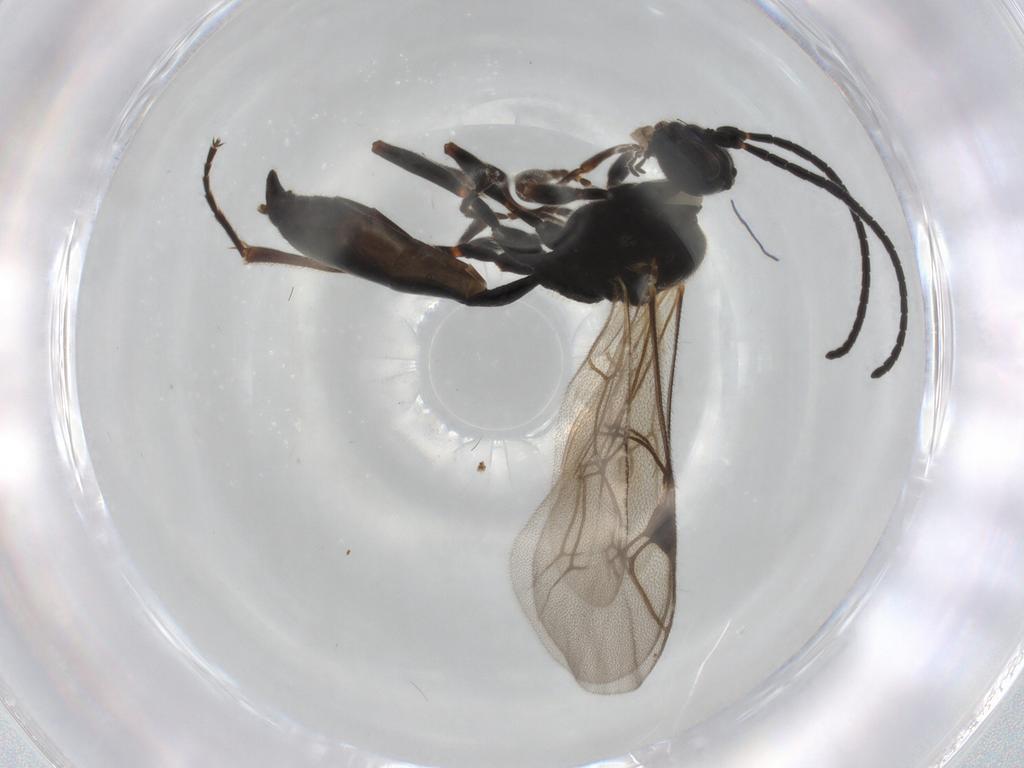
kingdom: Animalia
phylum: Arthropoda
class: Insecta
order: Hymenoptera
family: Ichneumonidae
